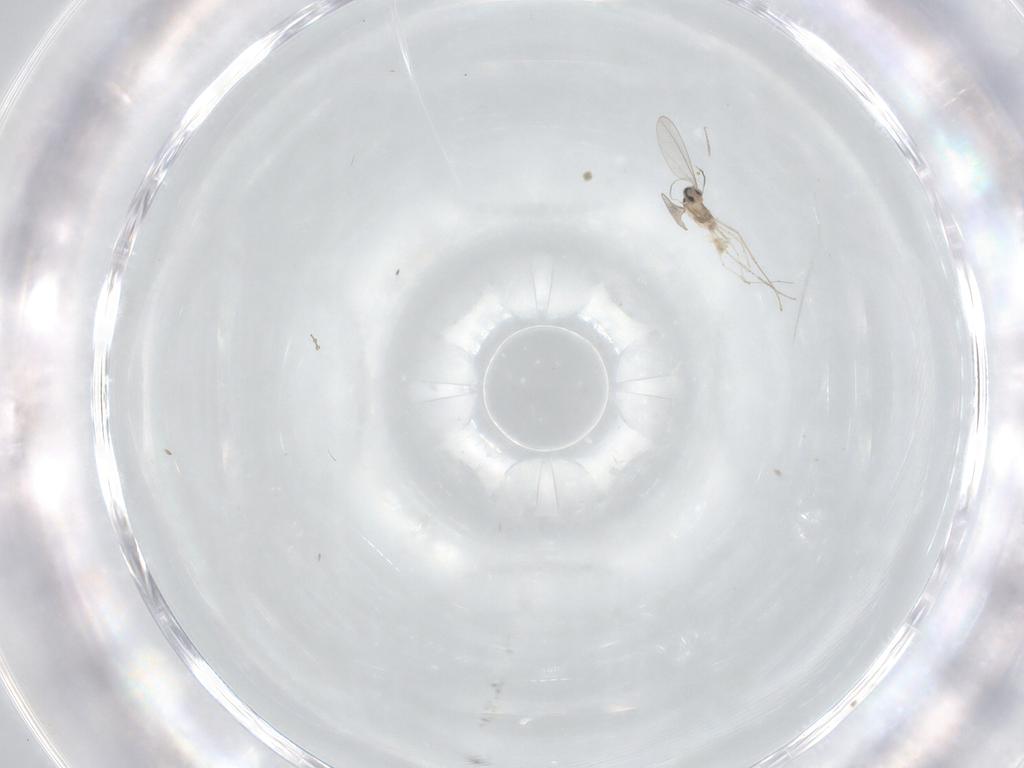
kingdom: Animalia
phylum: Arthropoda
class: Insecta
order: Diptera
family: Cecidomyiidae
